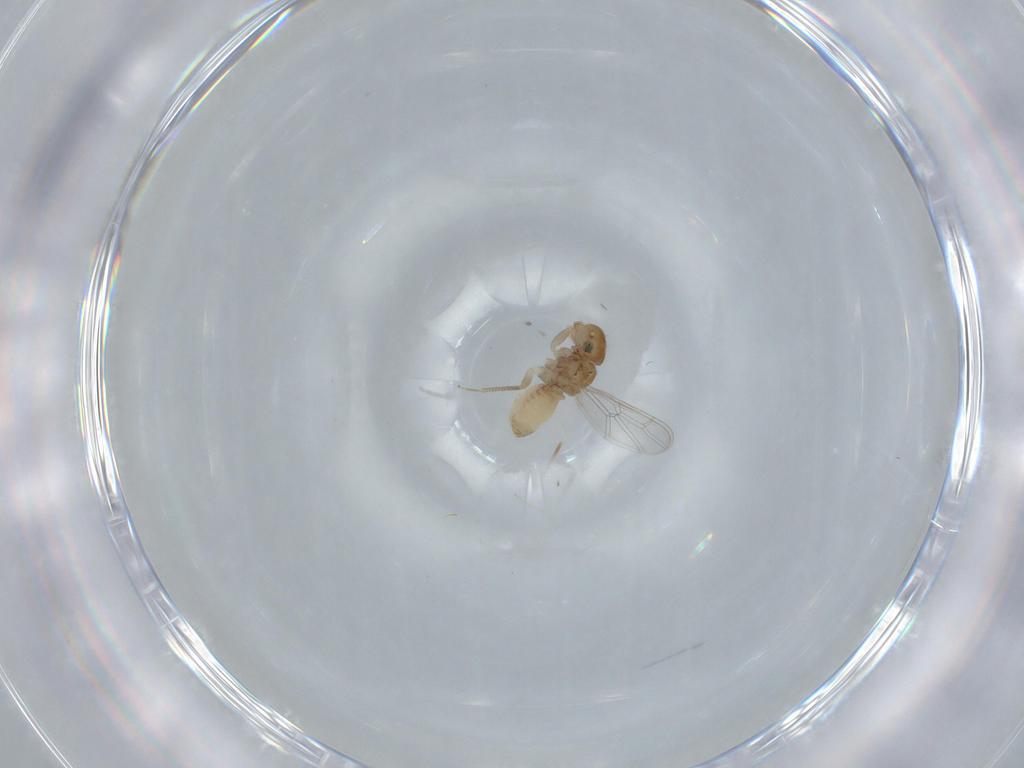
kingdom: Animalia
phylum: Arthropoda
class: Insecta
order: Psocodea
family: Ectopsocidae
